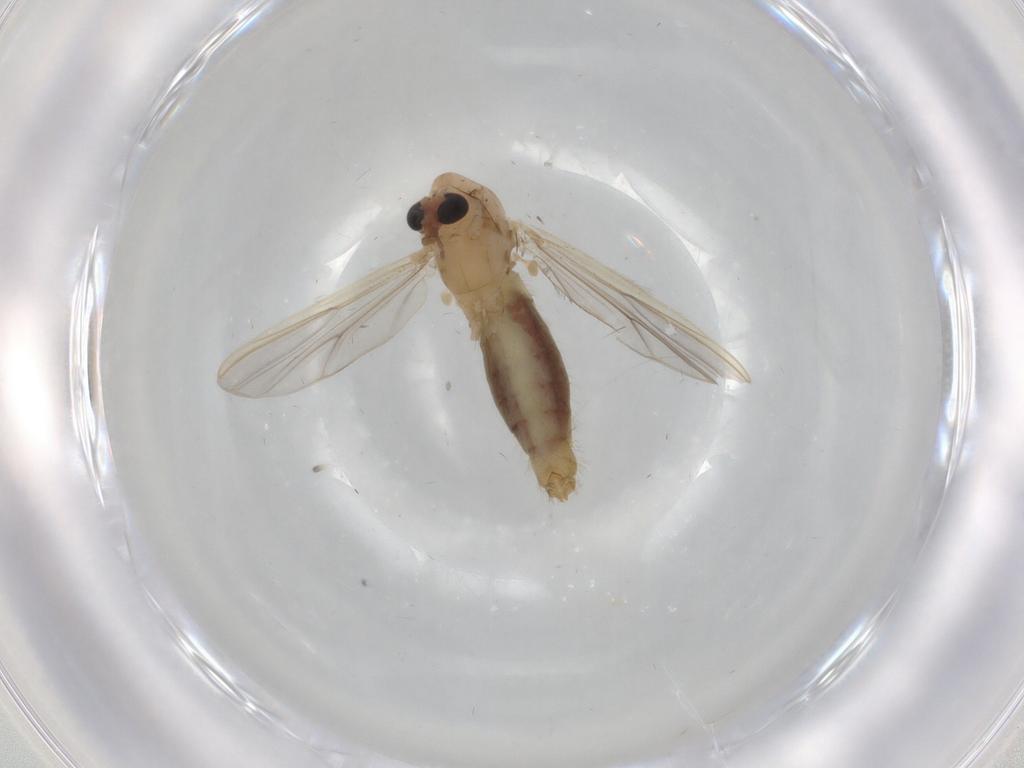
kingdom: Animalia
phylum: Arthropoda
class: Insecta
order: Diptera
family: Chironomidae
